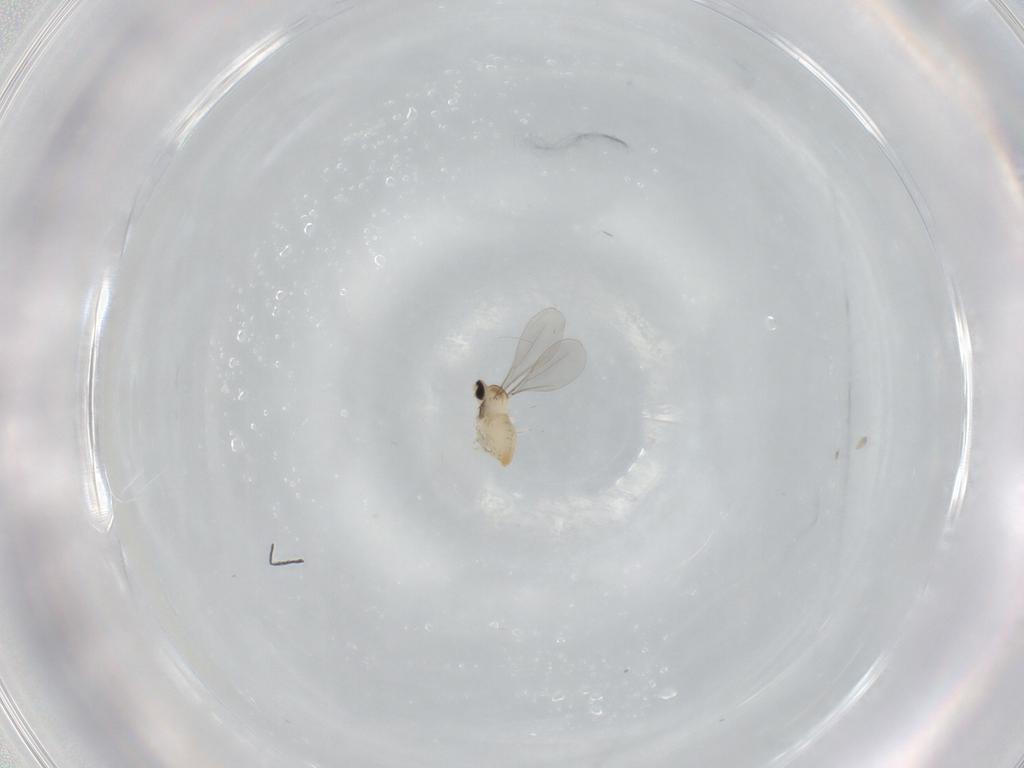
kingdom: Animalia
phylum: Arthropoda
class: Insecta
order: Diptera
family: Cecidomyiidae
